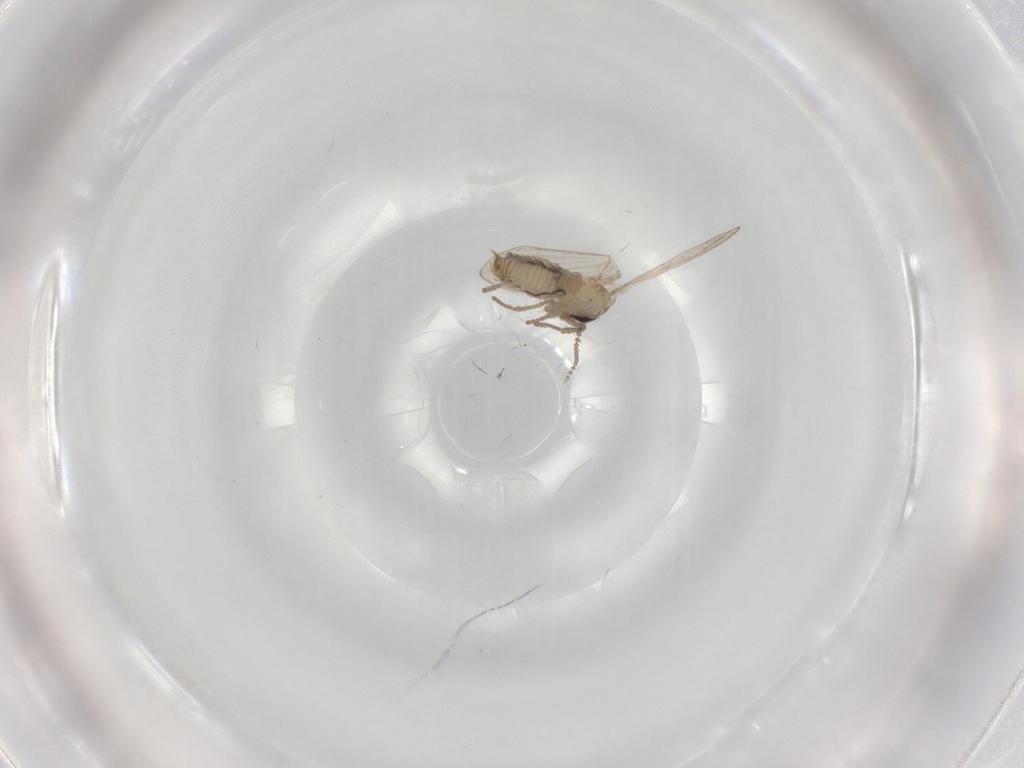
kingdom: Animalia
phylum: Arthropoda
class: Insecta
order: Diptera
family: Psychodidae
